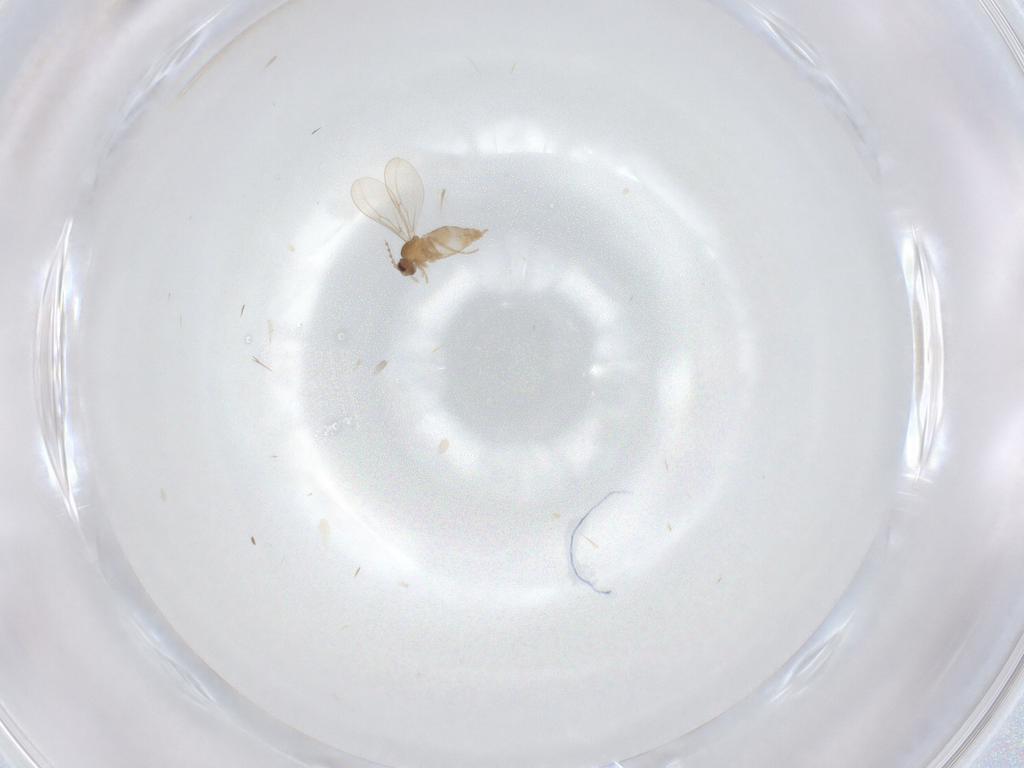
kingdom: Animalia
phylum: Arthropoda
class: Insecta
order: Diptera
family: Cecidomyiidae
